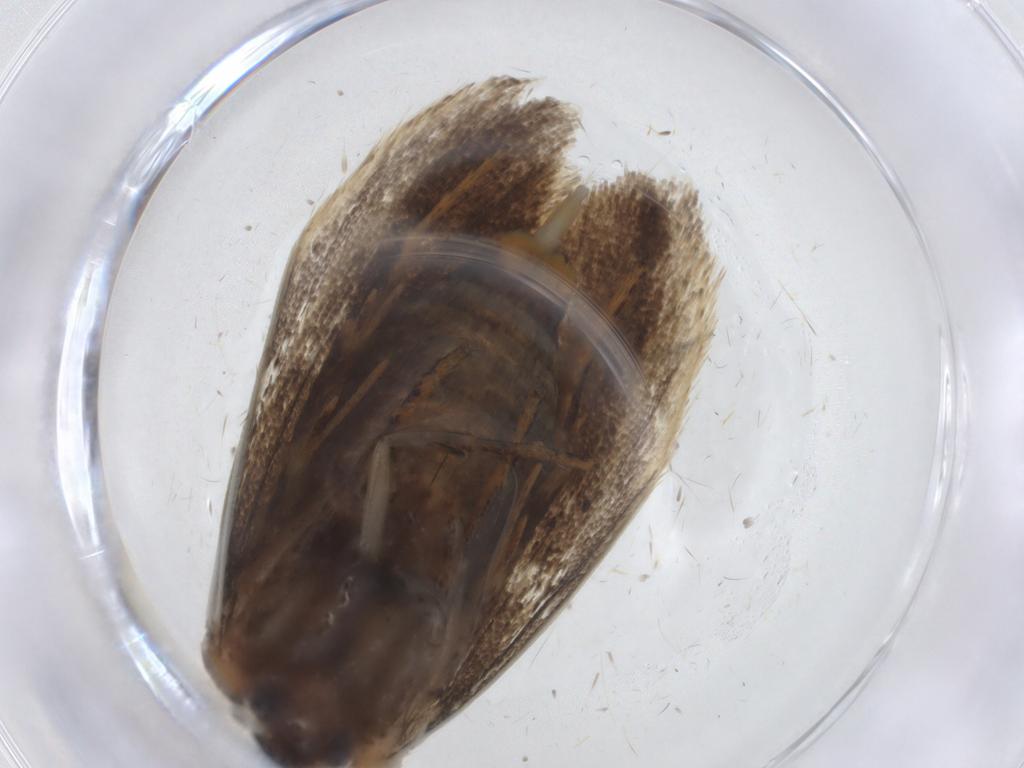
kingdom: Animalia
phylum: Arthropoda
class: Insecta
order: Lepidoptera
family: Oecophoridae
